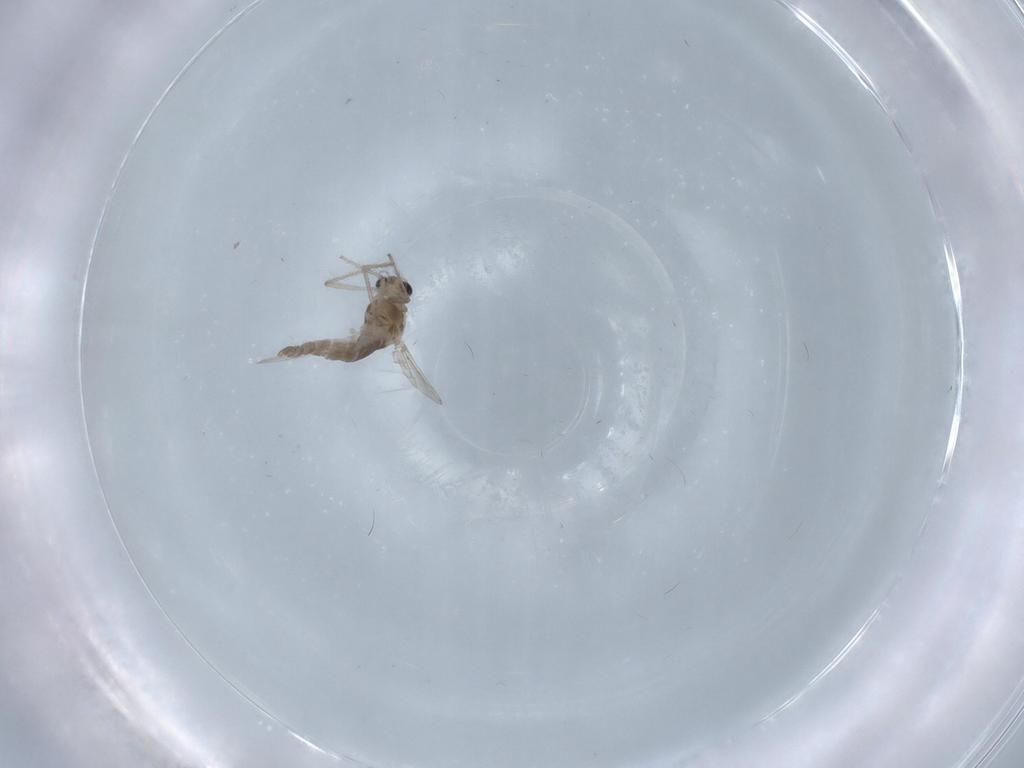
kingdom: Animalia
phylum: Arthropoda
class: Insecta
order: Diptera
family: Chironomidae
